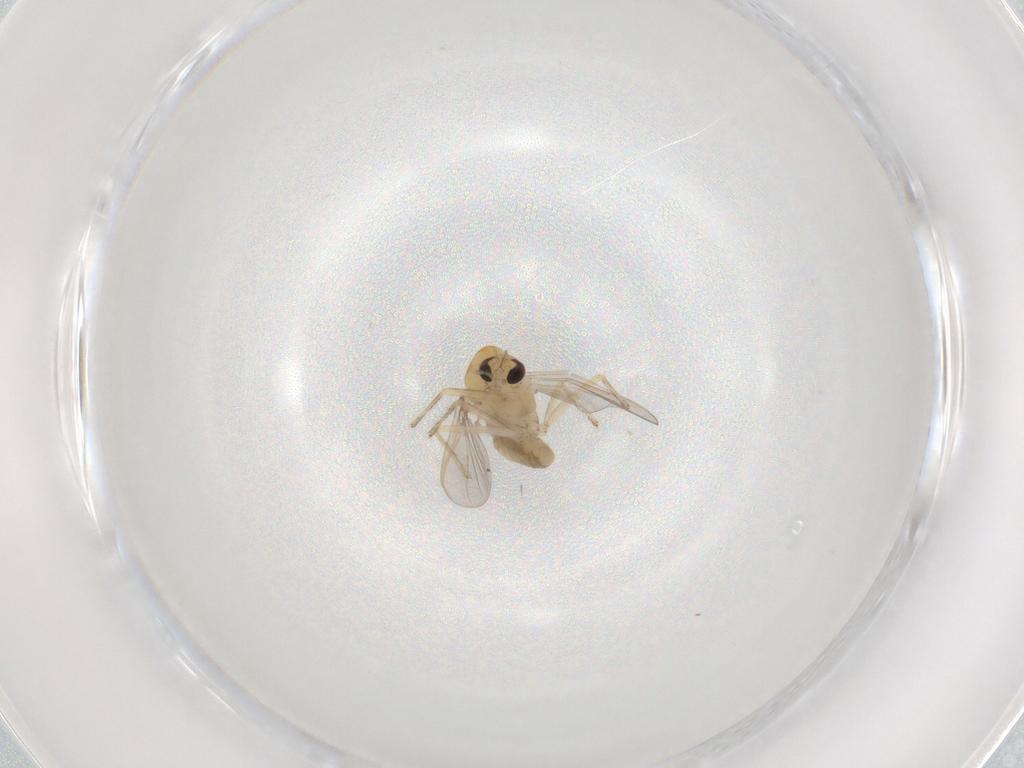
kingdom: Animalia
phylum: Arthropoda
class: Insecta
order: Diptera
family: Chironomidae
